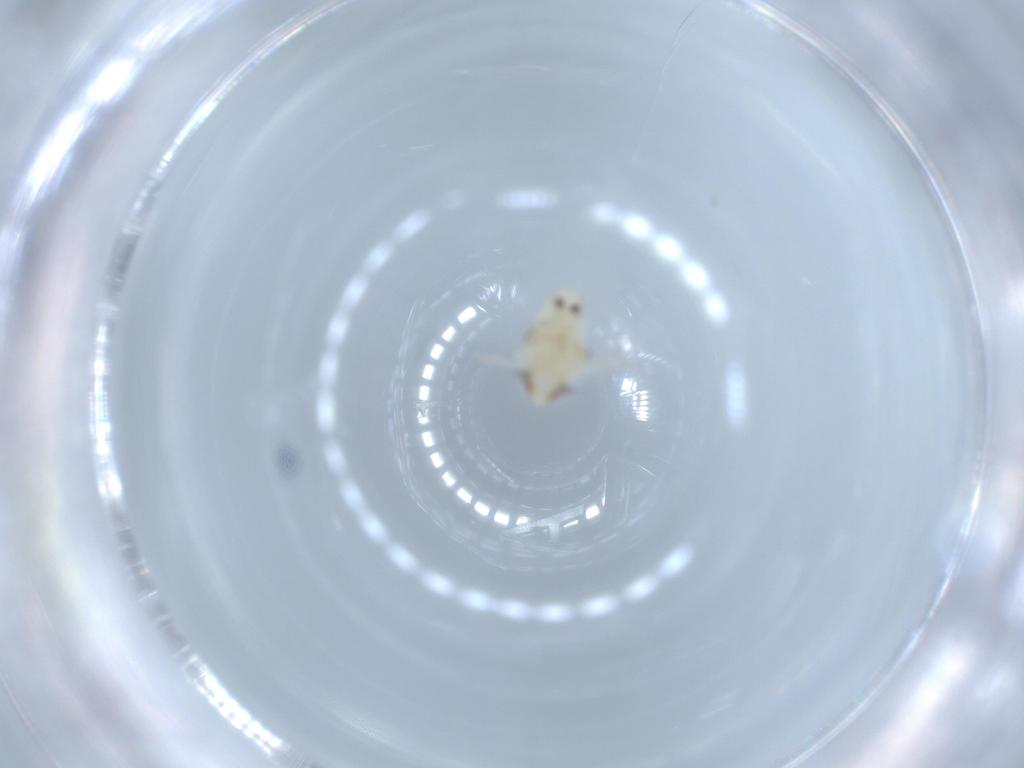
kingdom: Animalia
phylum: Arthropoda
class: Insecta
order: Hemiptera
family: Nogodinidae
